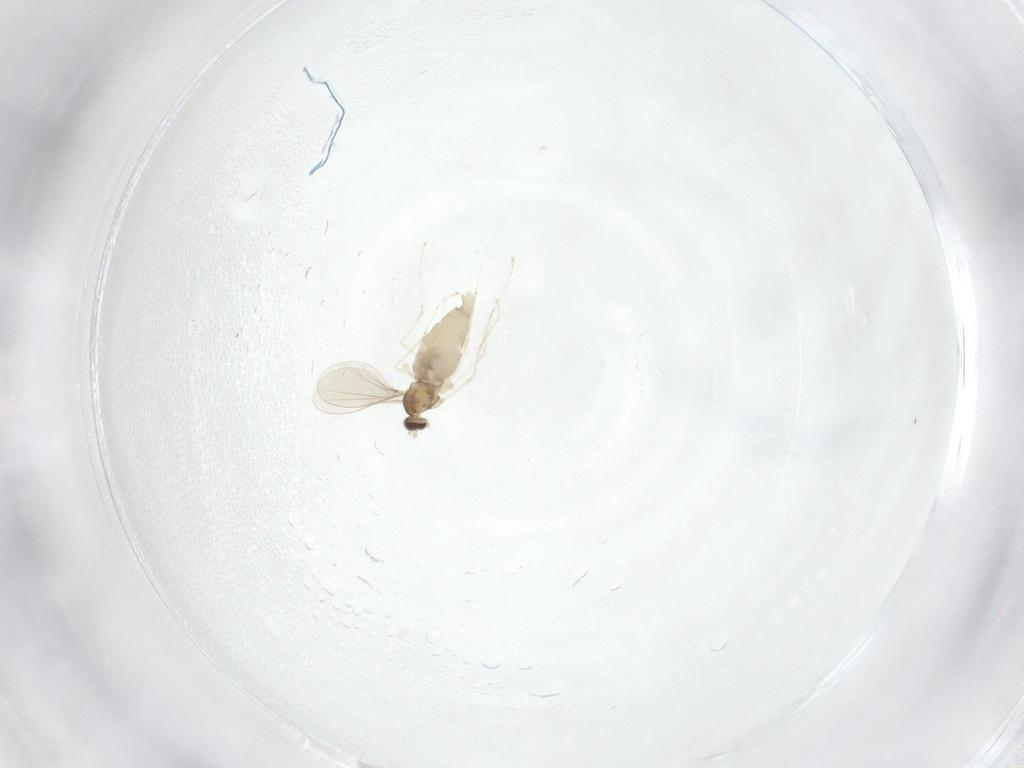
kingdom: Animalia
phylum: Arthropoda
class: Insecta
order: Diptera
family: Cecidomyiidae
